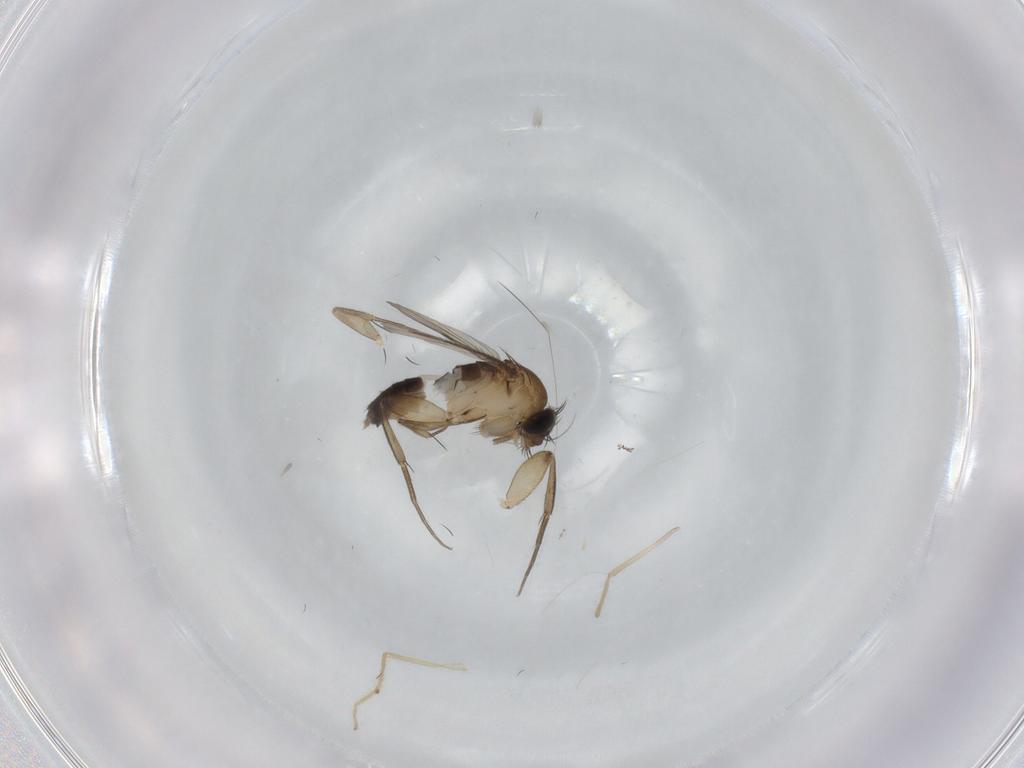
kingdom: Animalia
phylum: Arthropoda
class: Insecta
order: Diptera
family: Phoridae
